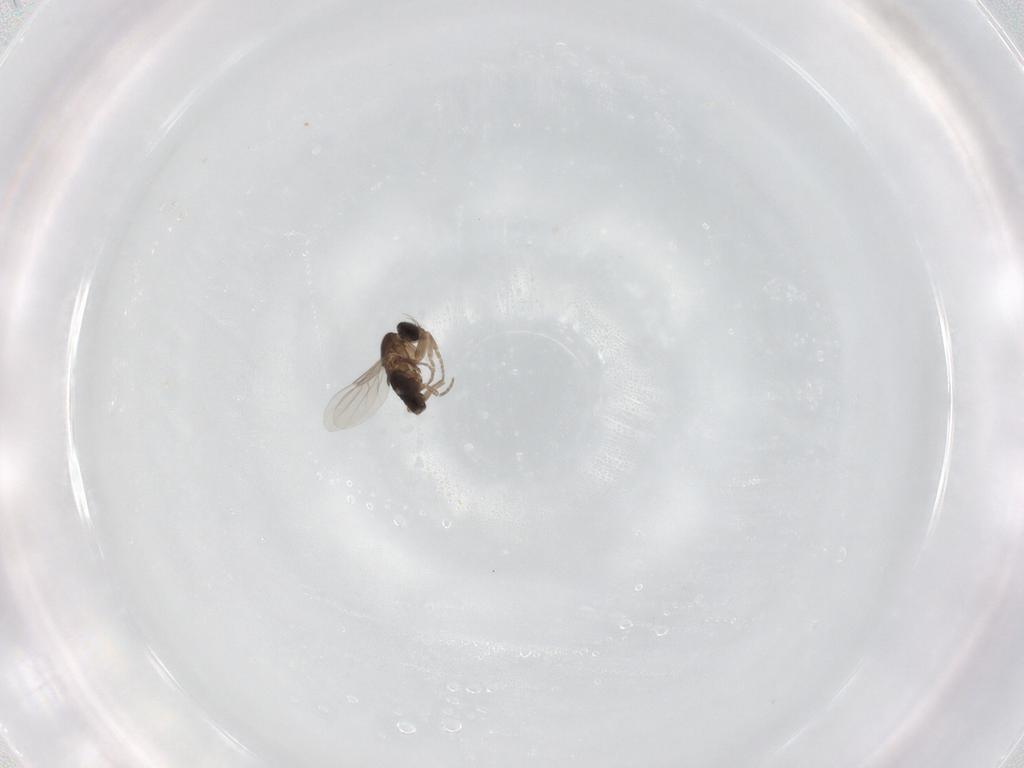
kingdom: Animalia
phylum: Arthropoda
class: Insecta
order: Diptera
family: Phoridae
